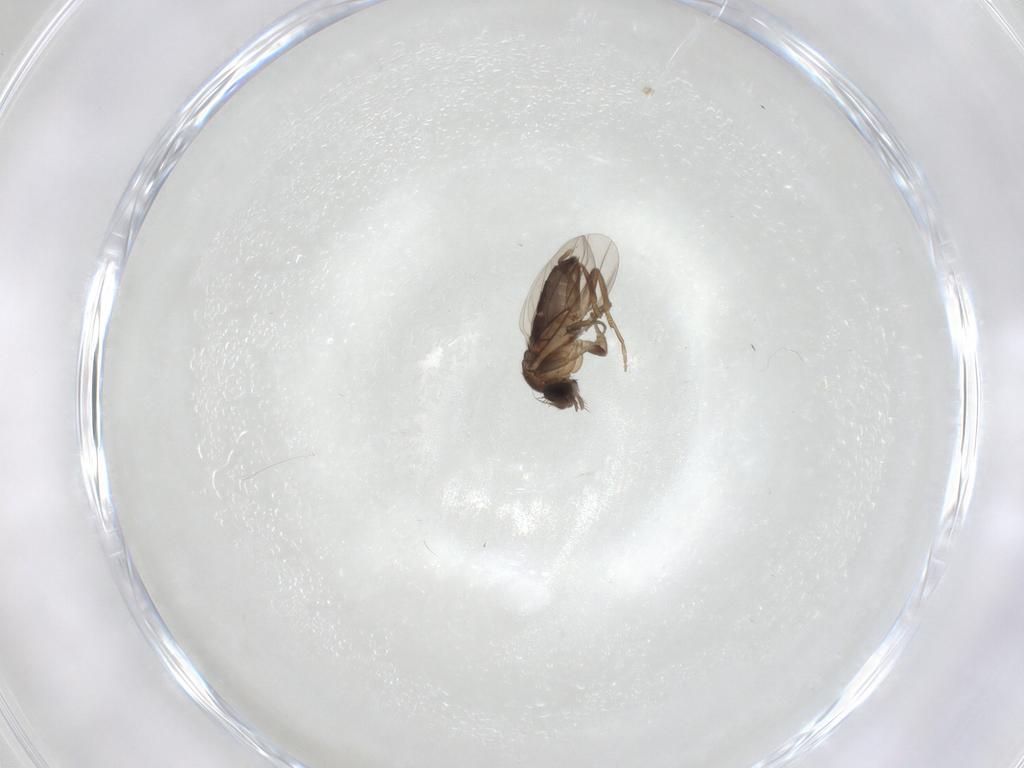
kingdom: Animalia
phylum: Arthropoda
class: Insecta
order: Diptera
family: Phoridae
